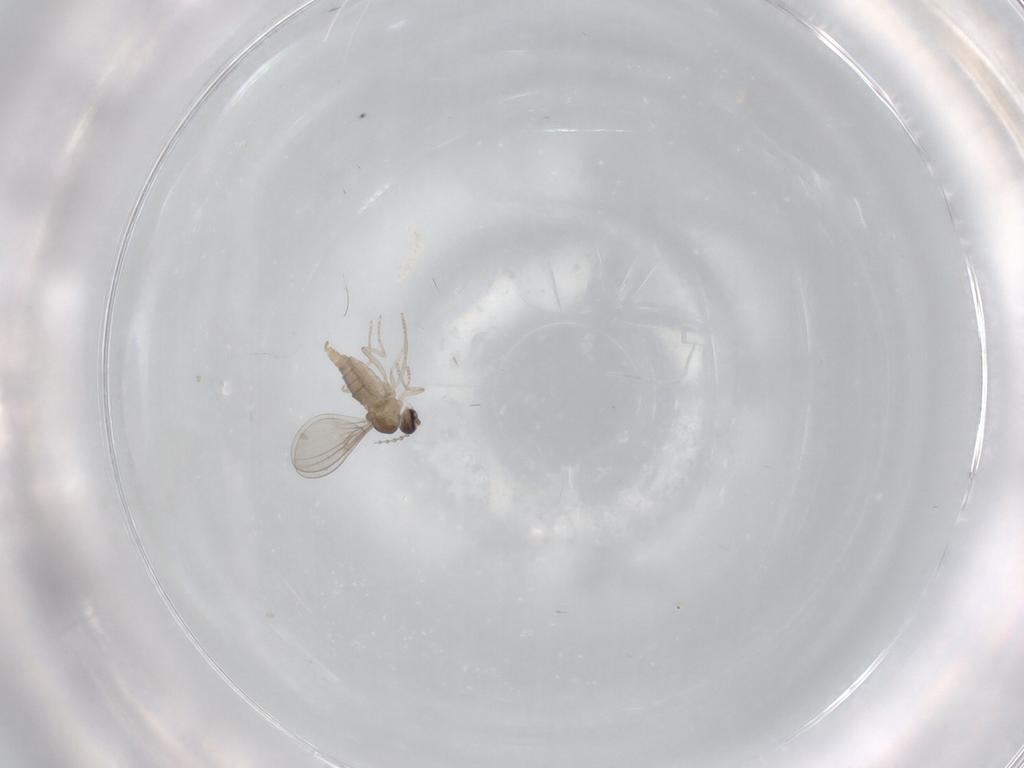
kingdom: Animalia
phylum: Arthropoda
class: Insecta
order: Diptera
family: Cecidomyiidae
